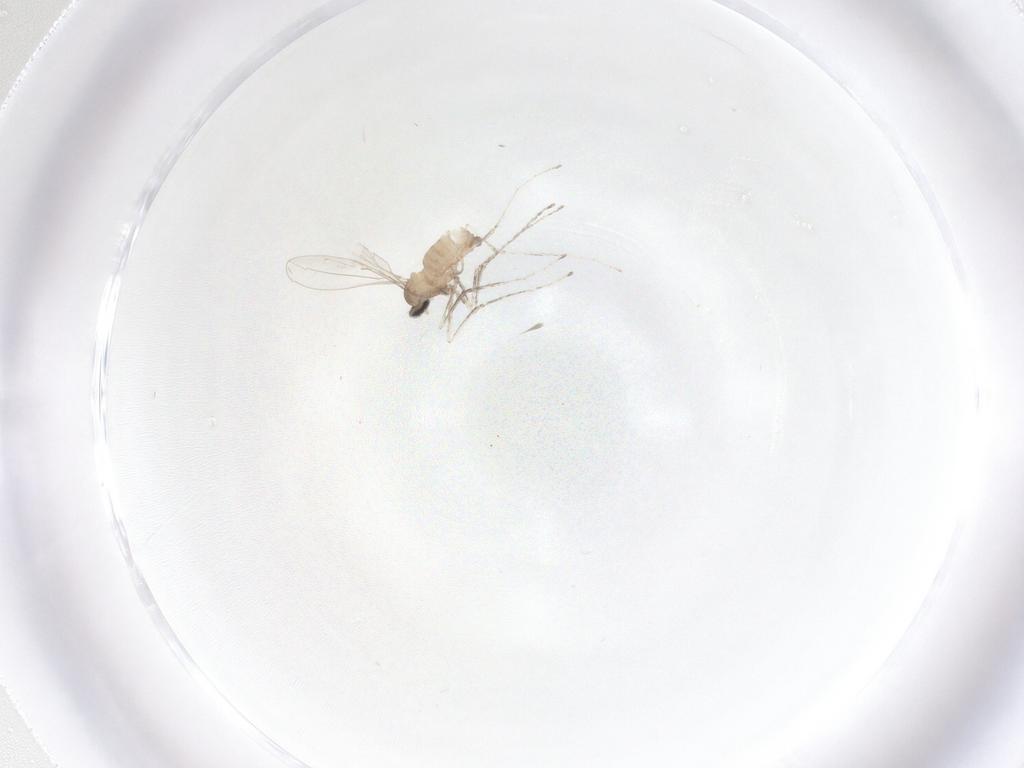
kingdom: Animalia
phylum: Arthropoda
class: Insecta
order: Diptera
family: Cecidomyiidae
